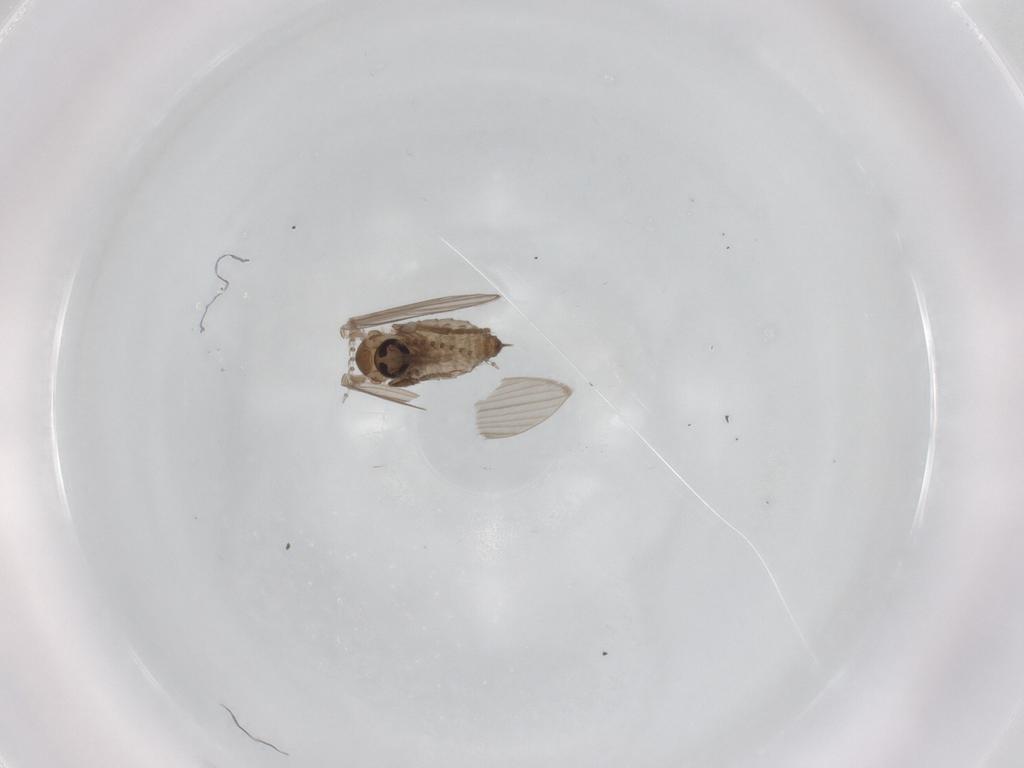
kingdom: Animalia
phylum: Arthropoda
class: Insecta
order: Diptera
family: Psychodidae
